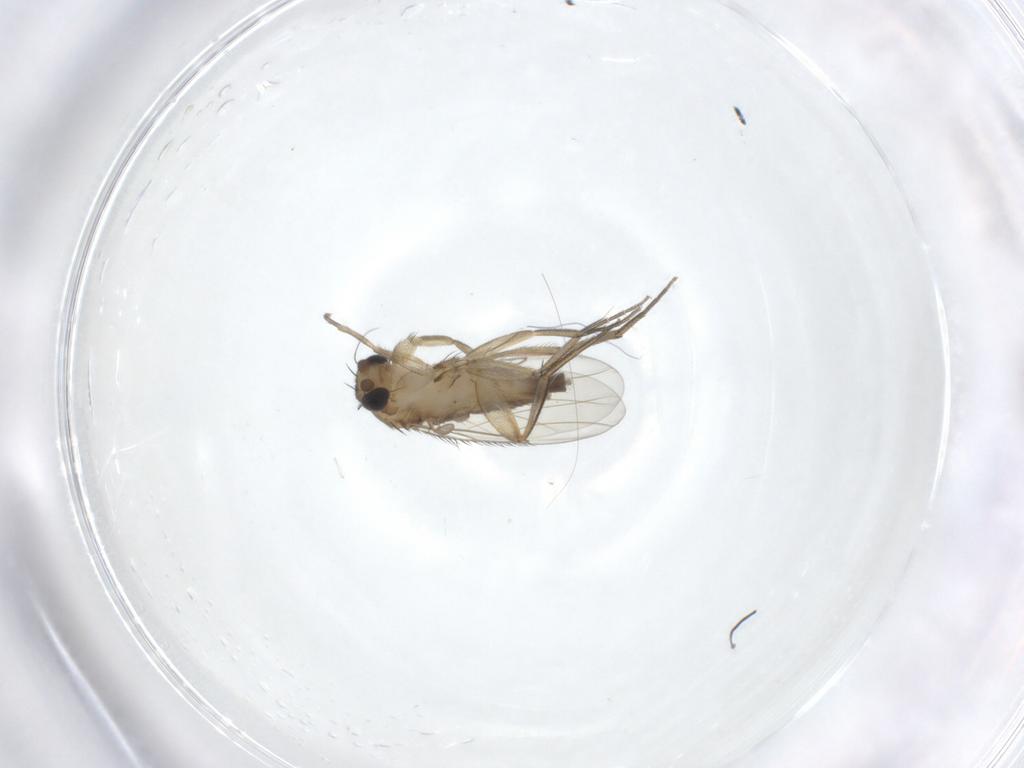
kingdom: Animalia
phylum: Arthropoda
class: Insecta
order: Diptera
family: Phoridae
